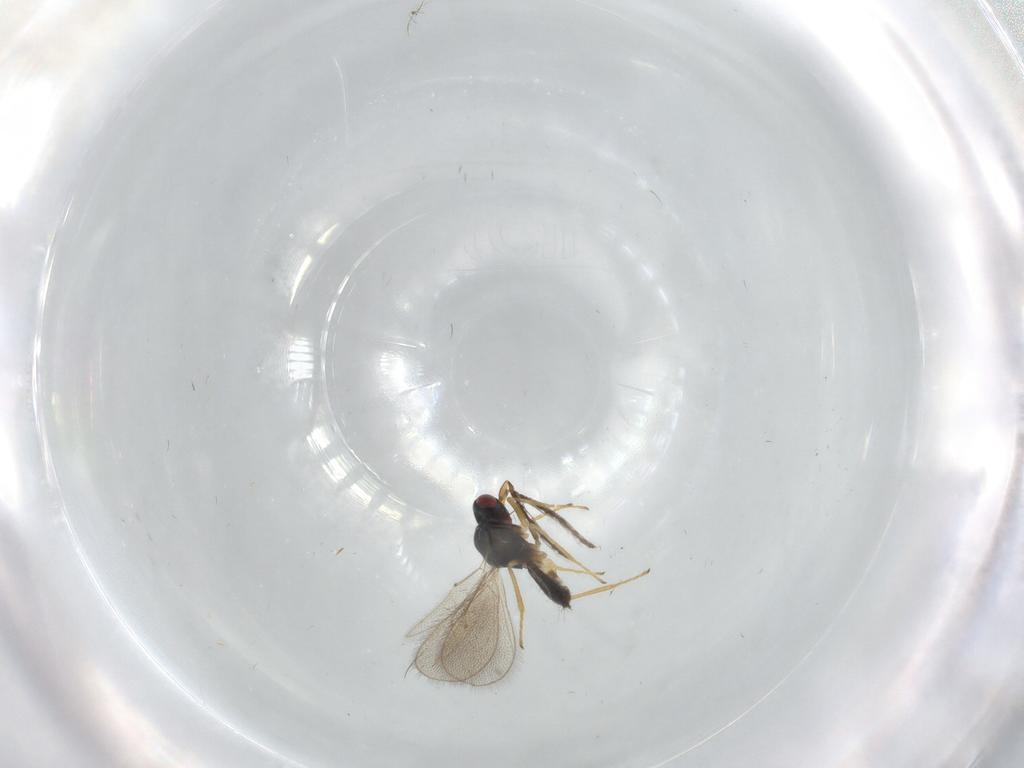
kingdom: Animalia
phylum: Arthropoda
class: Insecta
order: Hymenoptera
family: Eulophidae
